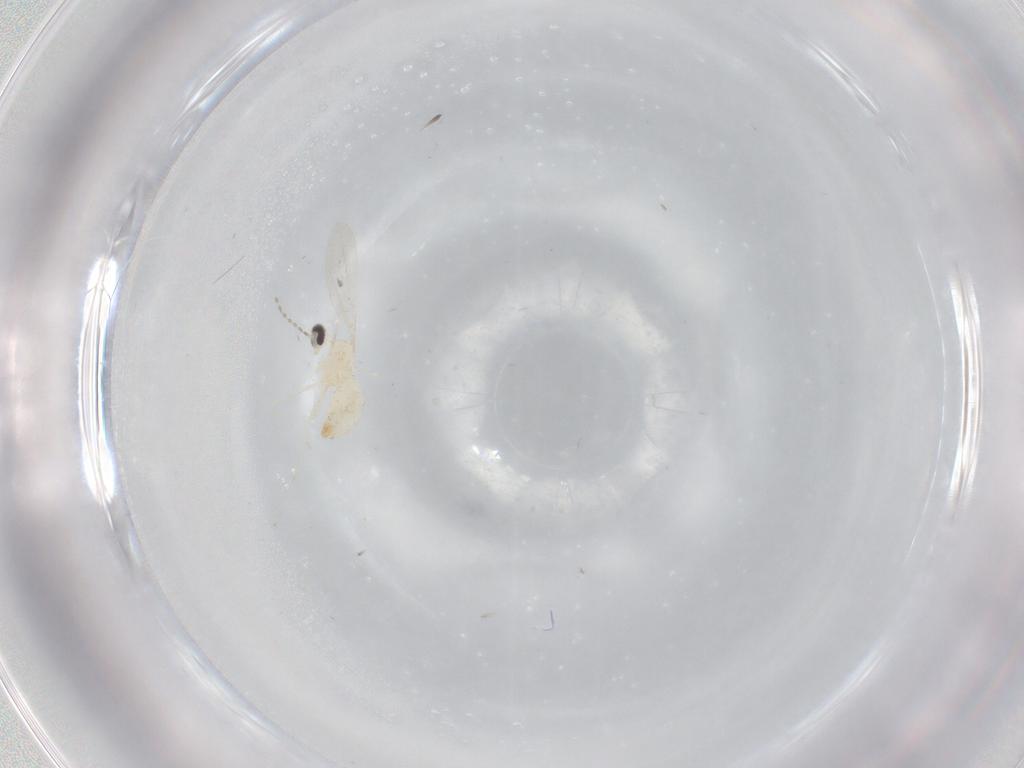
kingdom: Animalia
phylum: Arthropoda
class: Insecta
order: Diptera
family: Cecidomyiidae
